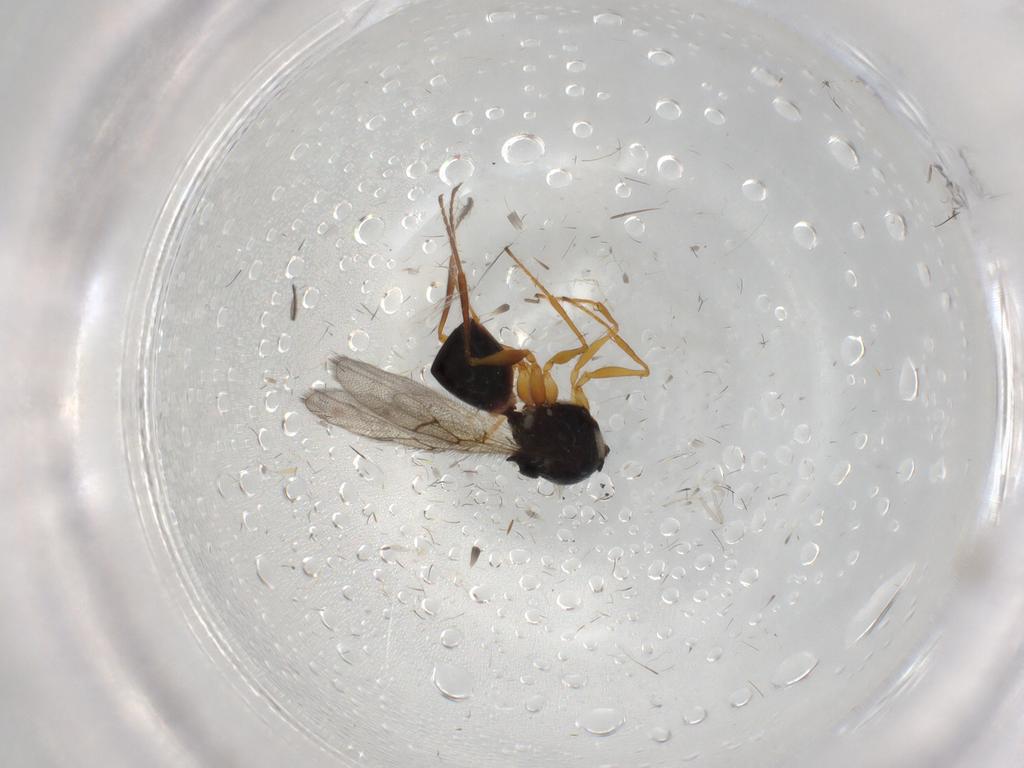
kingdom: Animalia
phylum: Arthropoda
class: Insecta
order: Hymenoptera
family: Figitidae
